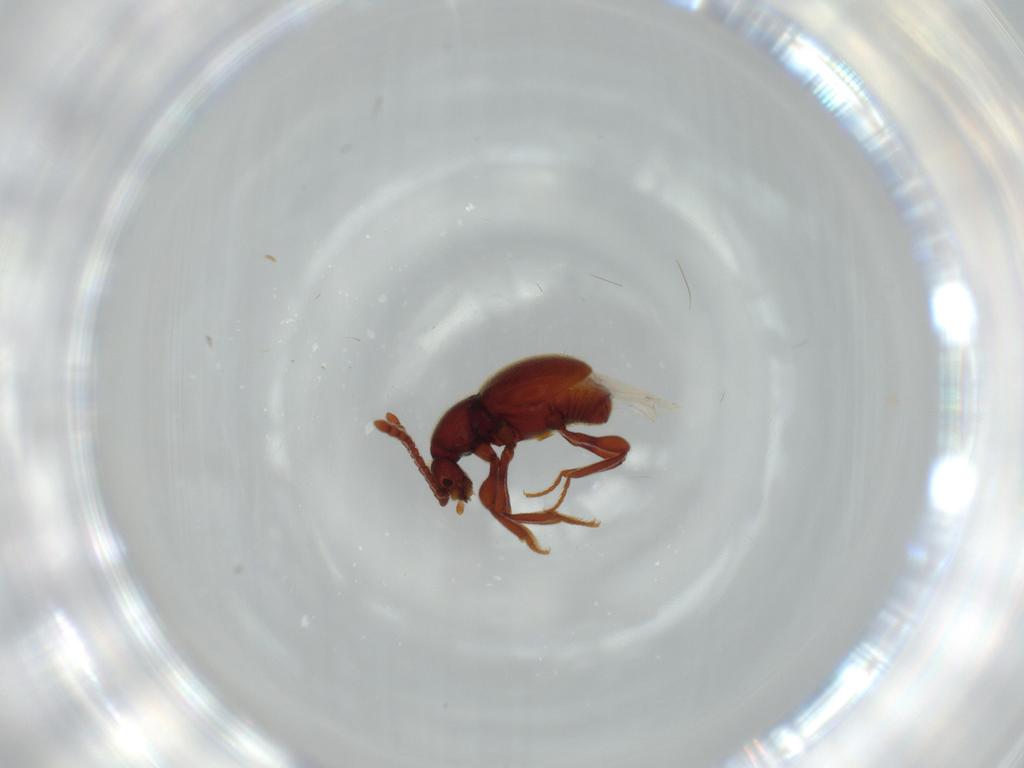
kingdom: Animalia
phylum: Arthropoda
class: Insecta
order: Coleoptera
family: Staphylinidae
